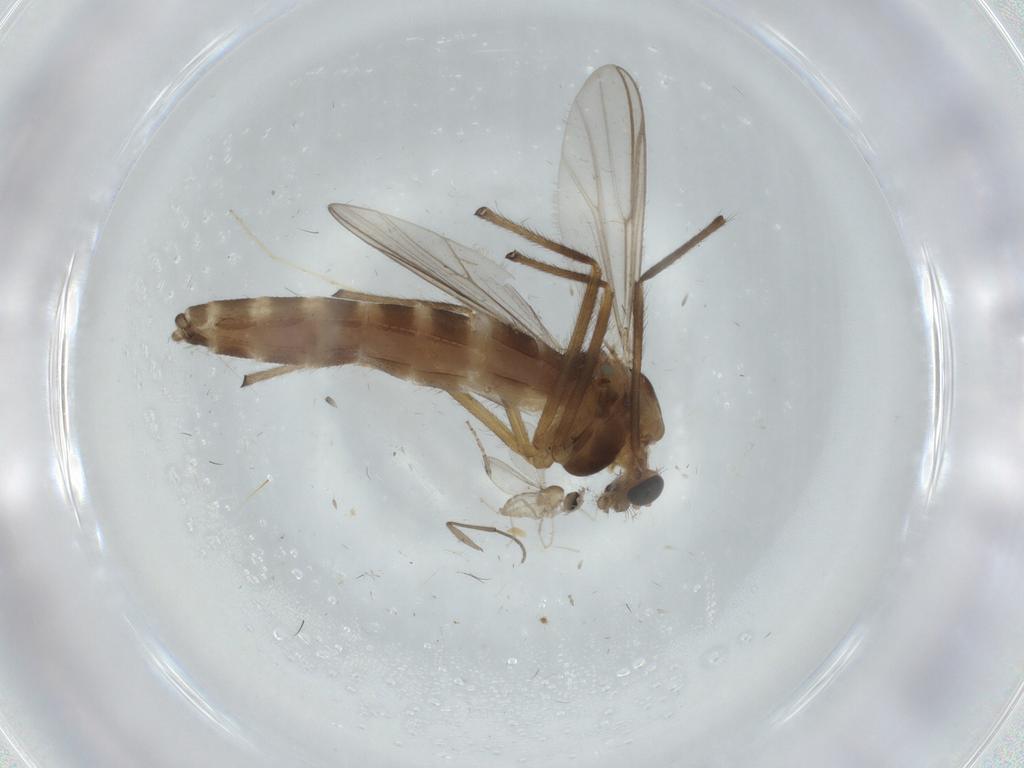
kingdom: Animalia
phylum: Arthropoda
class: Insecta
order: Diptera
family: Chironomidae
